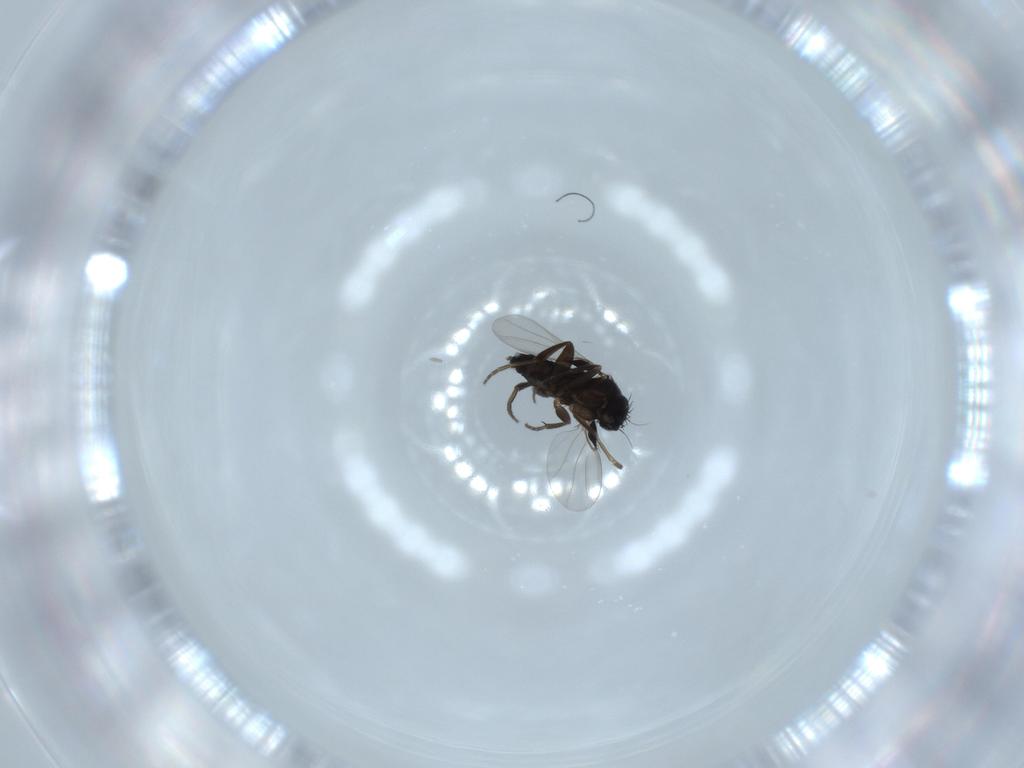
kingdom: Animalia
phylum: Arthropoda
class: Insecta
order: Diptera
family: Phoridae
